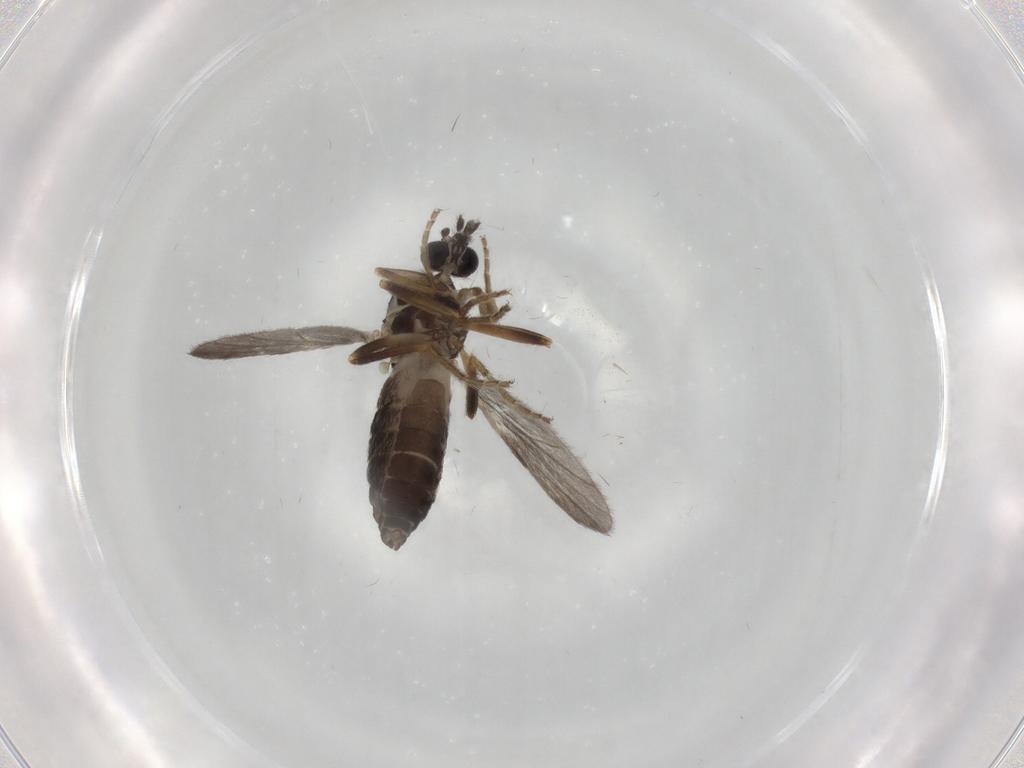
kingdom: Animalia
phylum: Arthropoda
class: Insecta
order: Diptera
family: Ceratopogonidae
